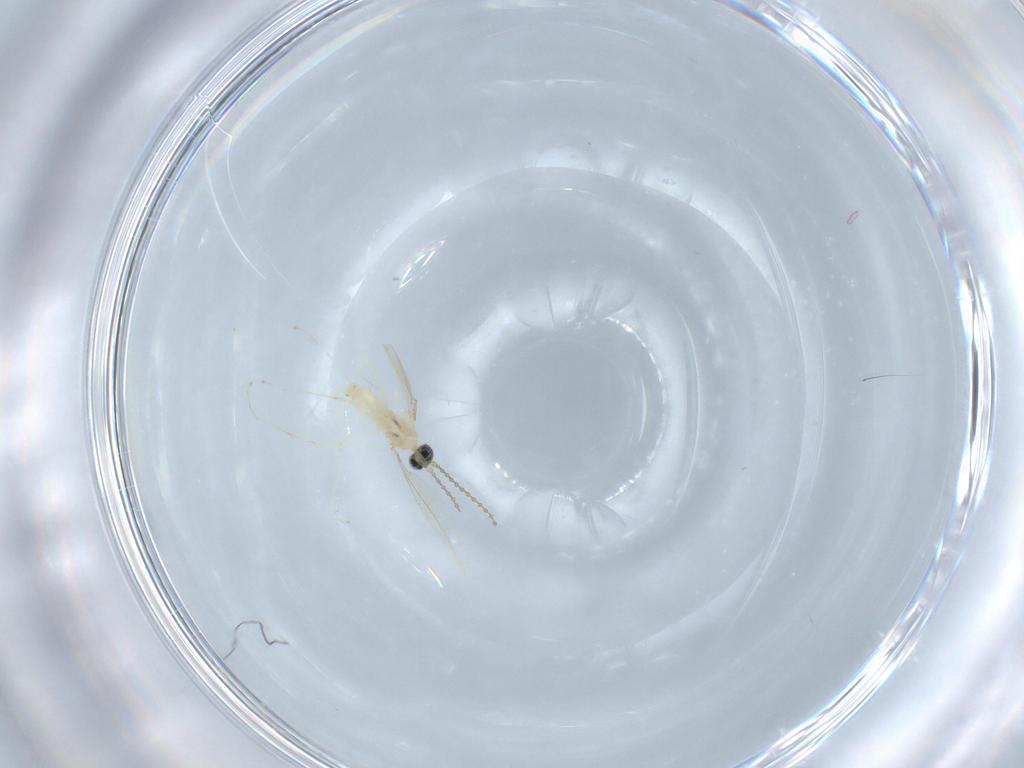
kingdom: Animalia
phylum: Arthropoda
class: Insecta
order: Diptera
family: Cecidomyiidae
